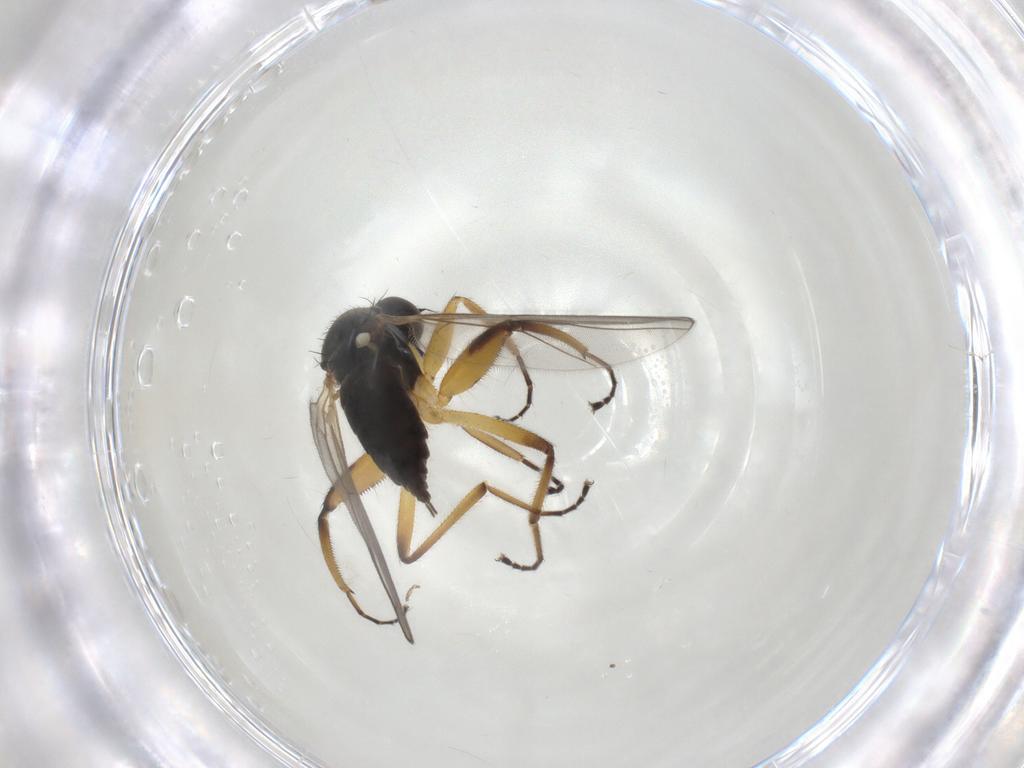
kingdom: Animalia
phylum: Arthropoda
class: Insecta
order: Diptera
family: Hybotidae
